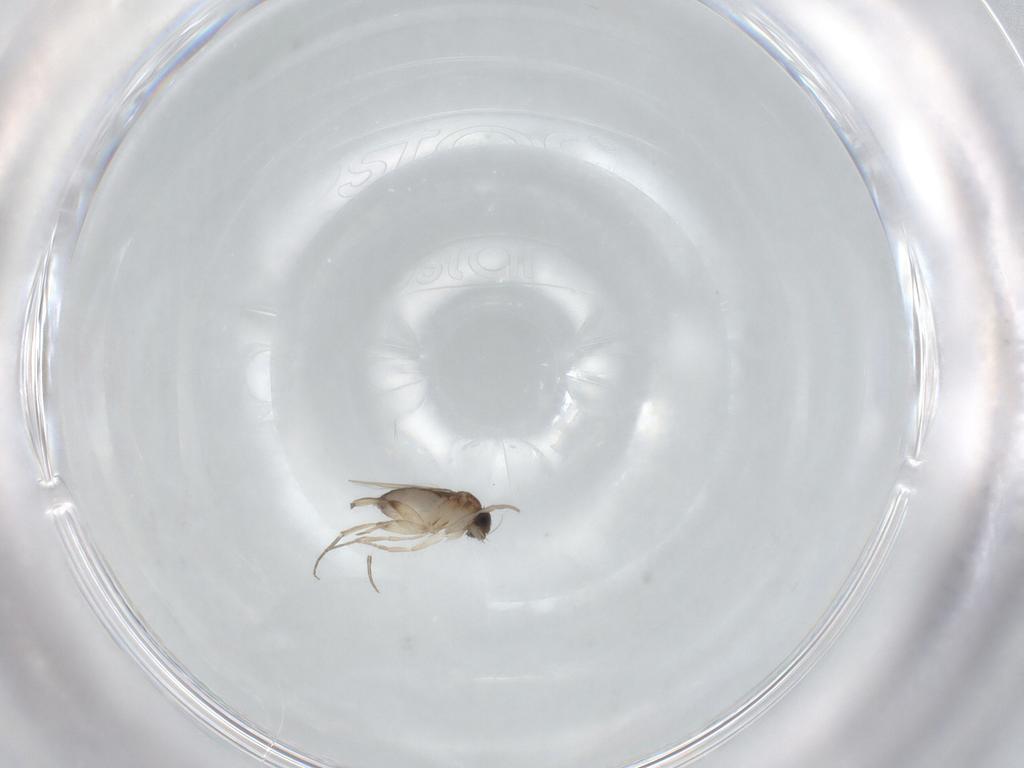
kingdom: Animalia
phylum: Arthropoda
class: Insecta
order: Diptera
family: Phoridae
